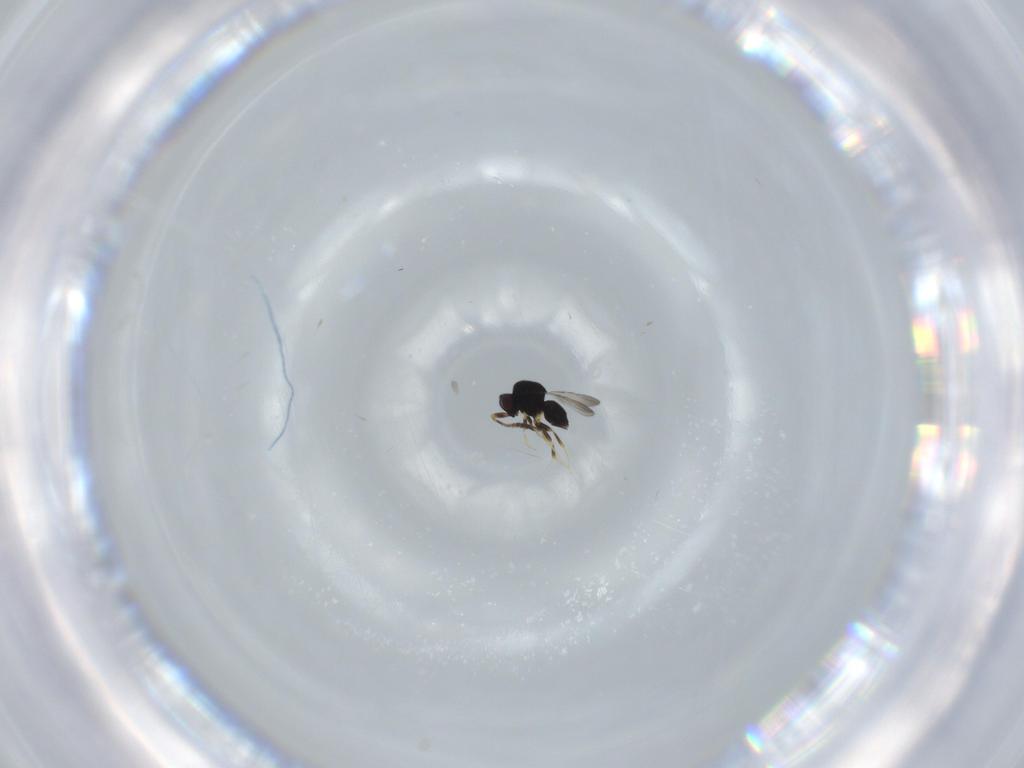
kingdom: Animalia
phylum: Arthropoda
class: Insecta
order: Hymenoptera
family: Ceraphronidae
